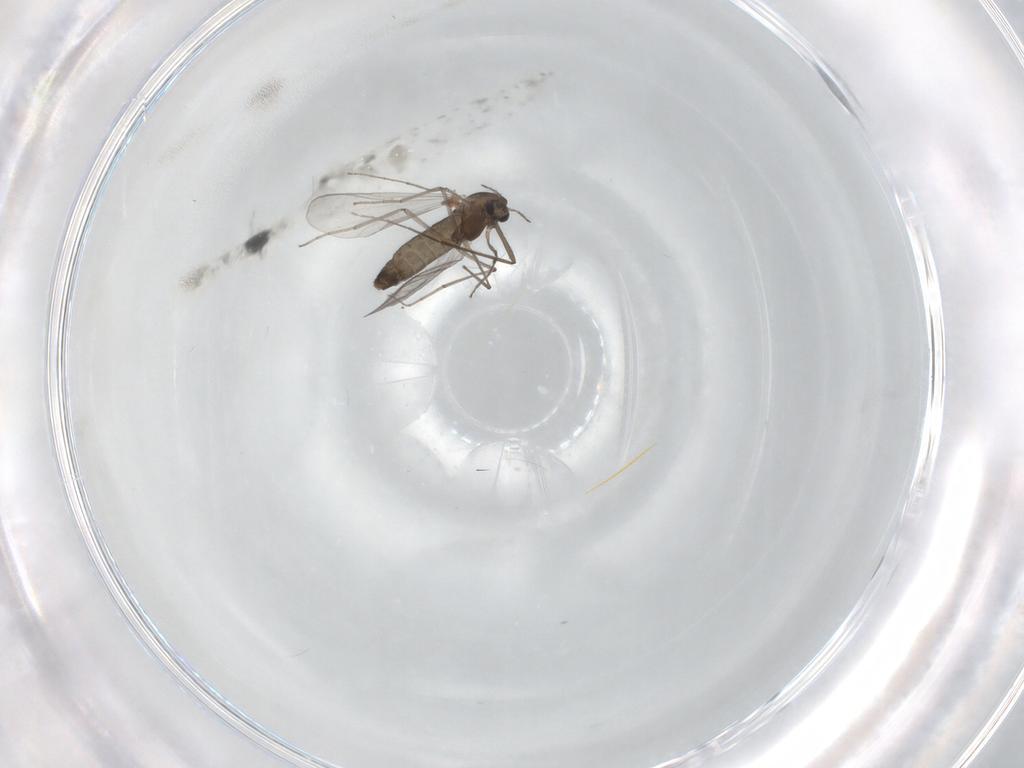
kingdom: Animalia
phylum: Arthropoda
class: Insecta
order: Diptera
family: Chironomidae
